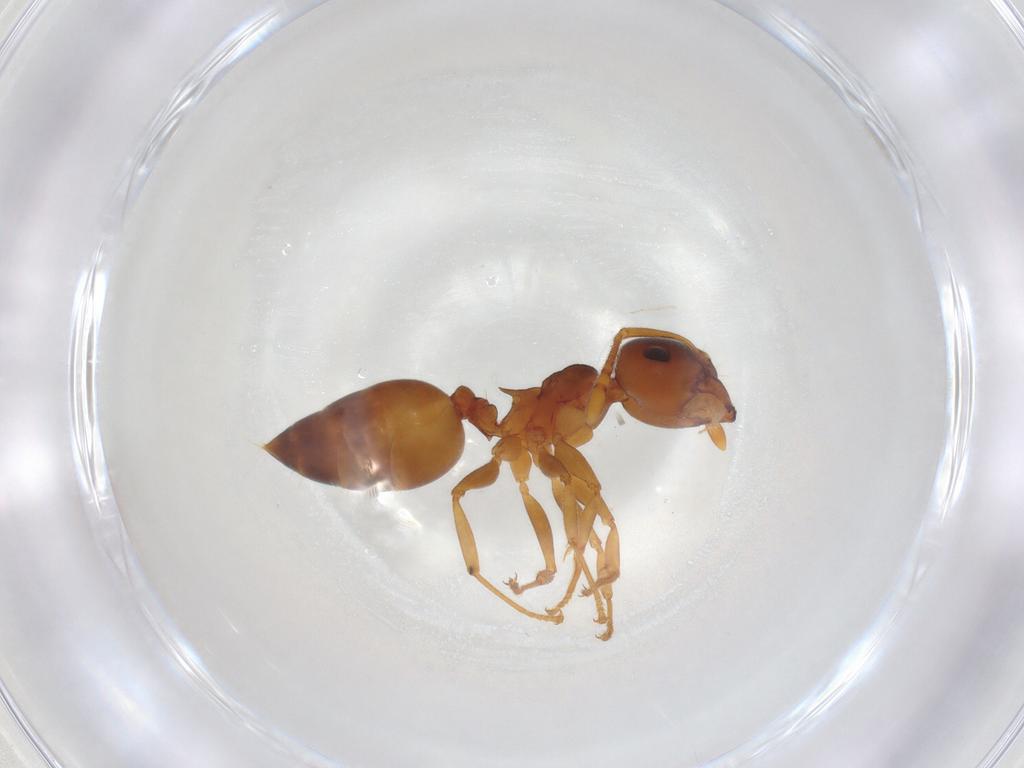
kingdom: Animalia
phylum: Arthropoda
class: Insecta
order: Hymenoptera
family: Formicidae
